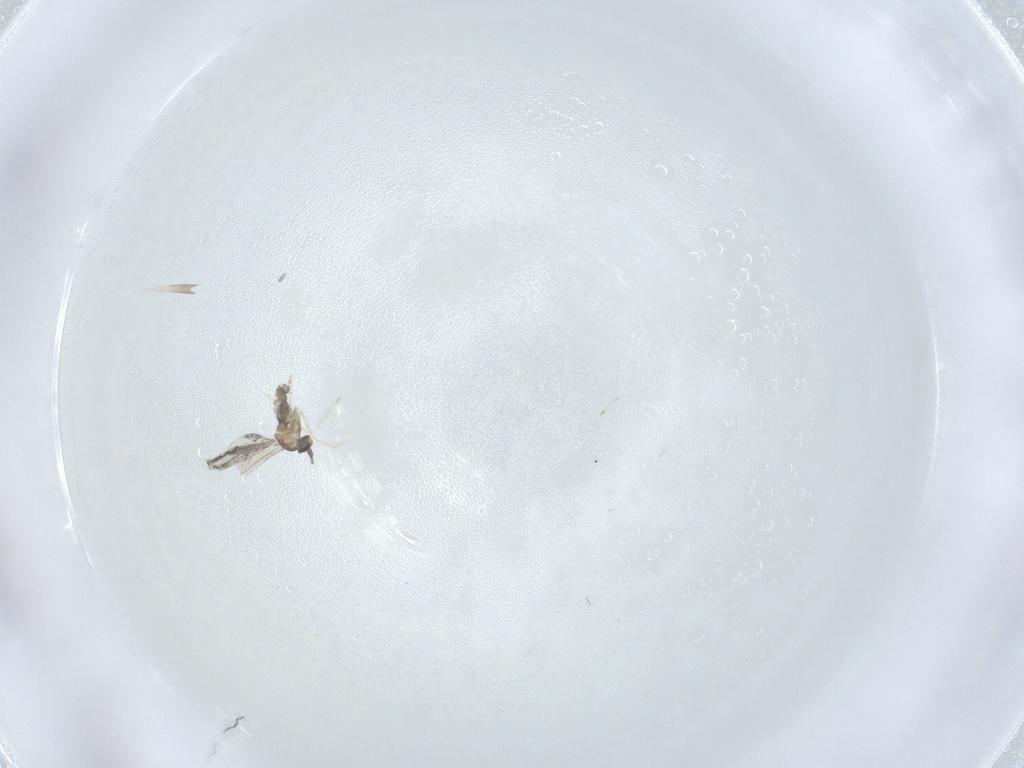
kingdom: Animalia
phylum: Arthropoda
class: Insecta
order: Diptera
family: Cecidomyiidae
